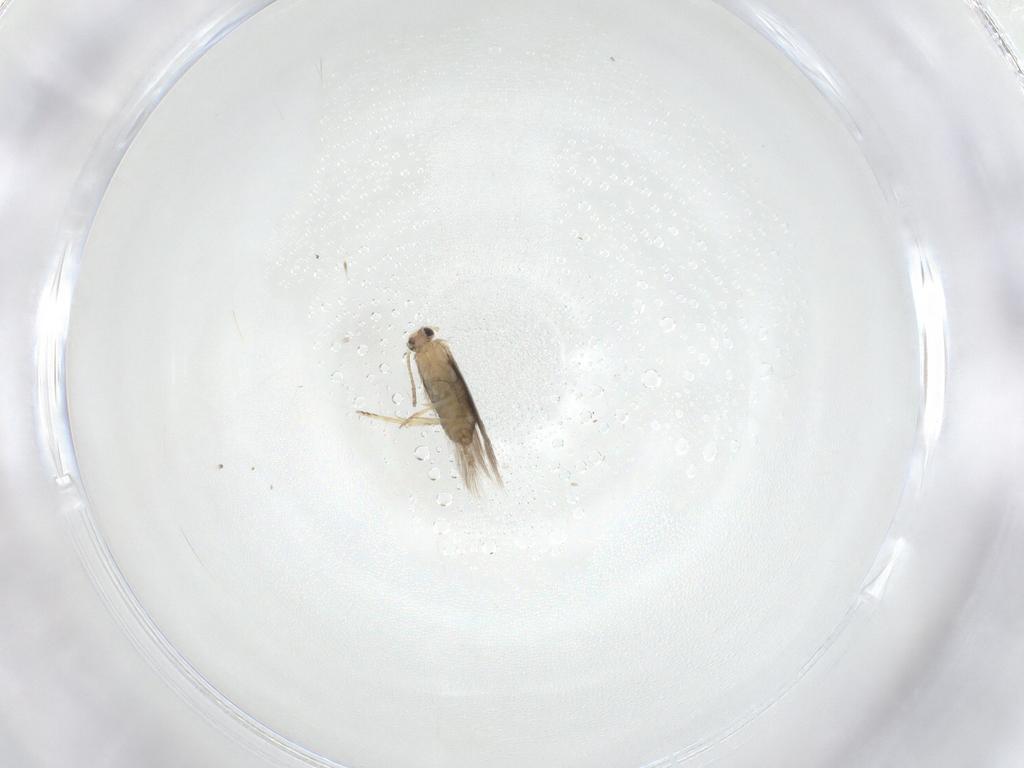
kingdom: Animalia
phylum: Arthropoda
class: Insecta
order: Lepidoptera
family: Nepticulidae
